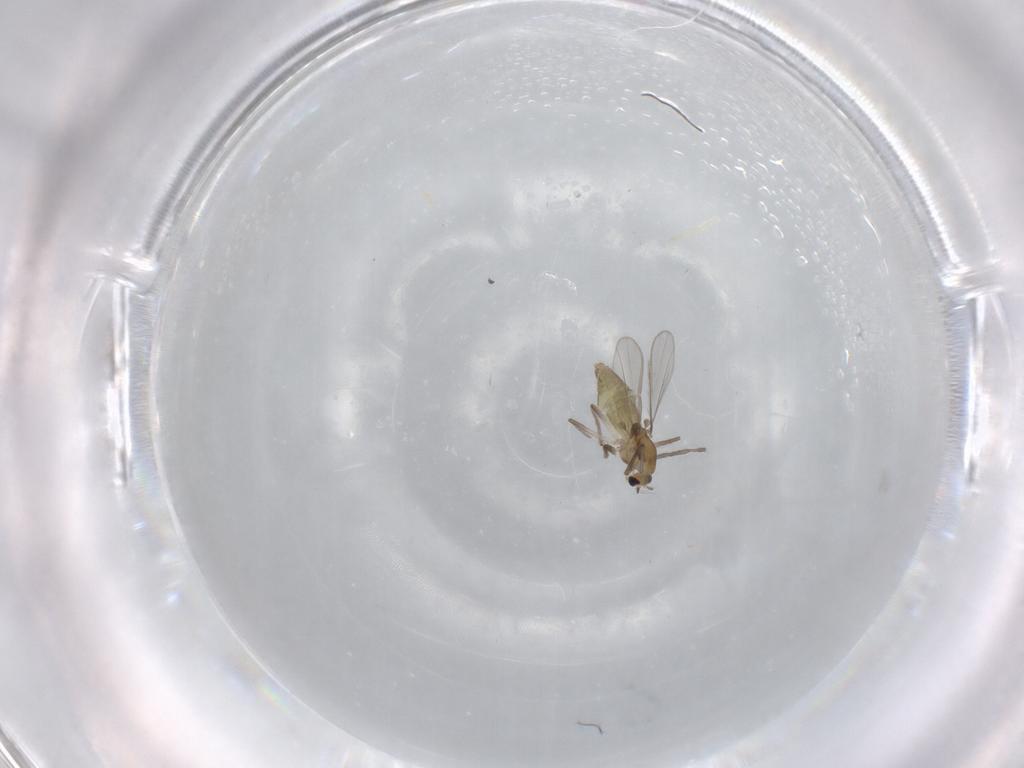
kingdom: Animalia
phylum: Arthropoda
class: Insecta
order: Diptera
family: Chironomidae
